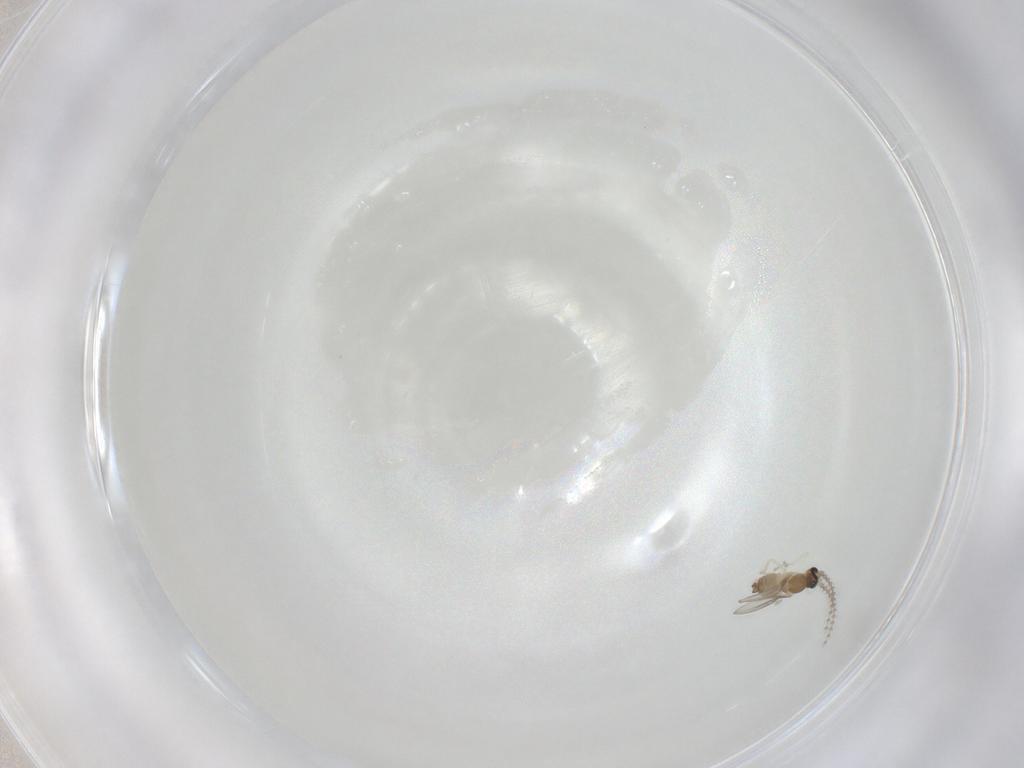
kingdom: Animalia
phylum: Arthropoda
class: Insecta
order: Diptera
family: Cecidomyiidae
